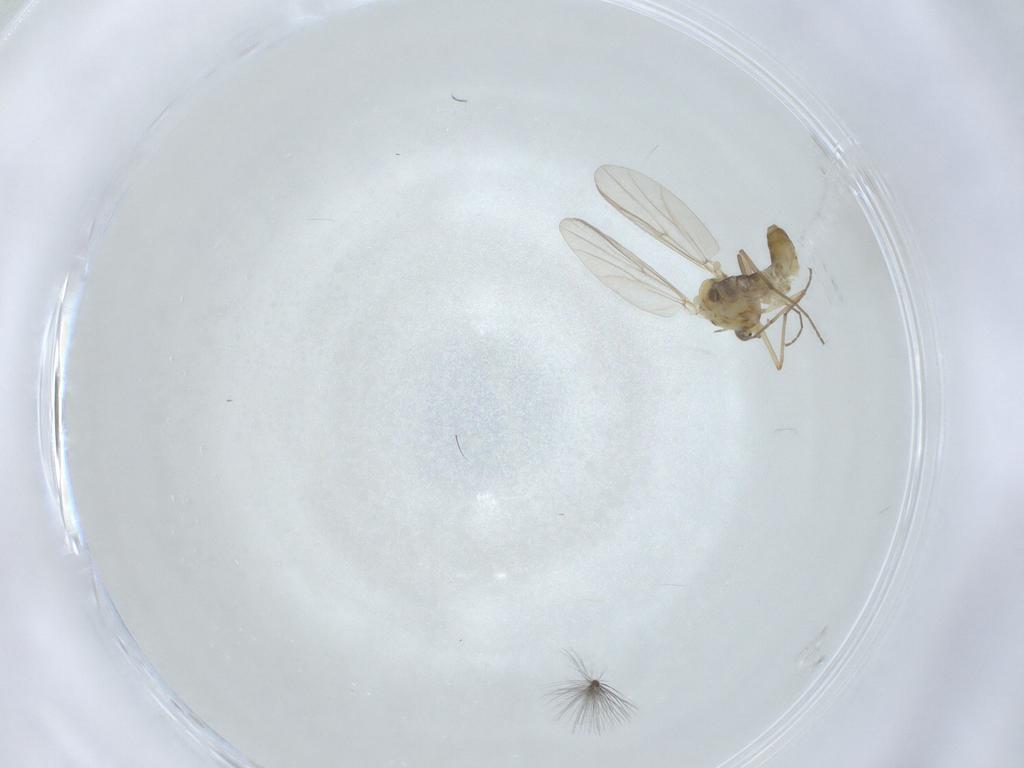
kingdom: Animalia
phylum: Arthropoda
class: Insecta
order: Diptera
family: Chironomidae
